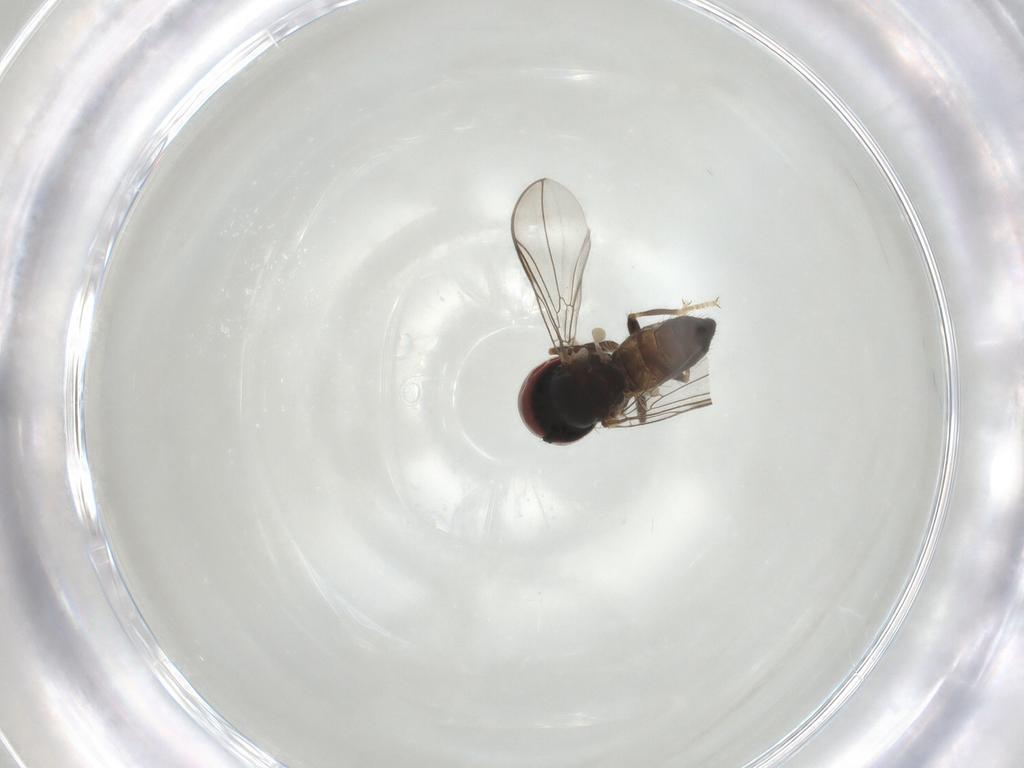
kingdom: Animalia
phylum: Arthropoda
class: Insecta
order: Diptera
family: Pipunculidae
